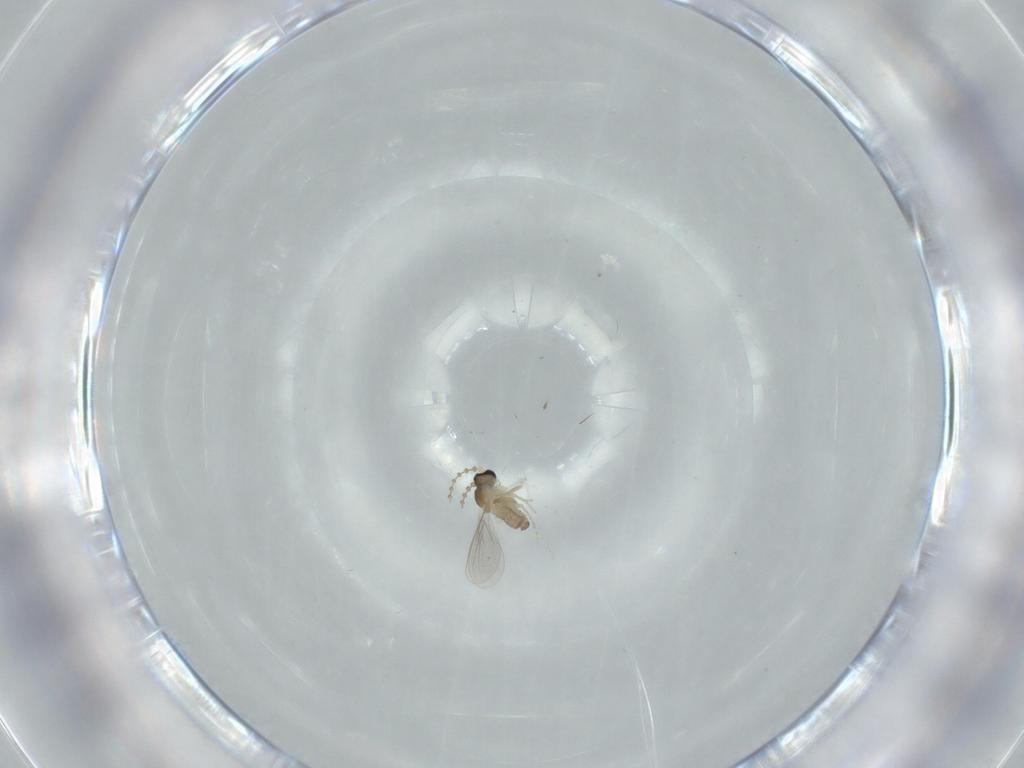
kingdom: Animalia
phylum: Arthropoda
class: Insecta
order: Diptera
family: Cecidomyiidae
